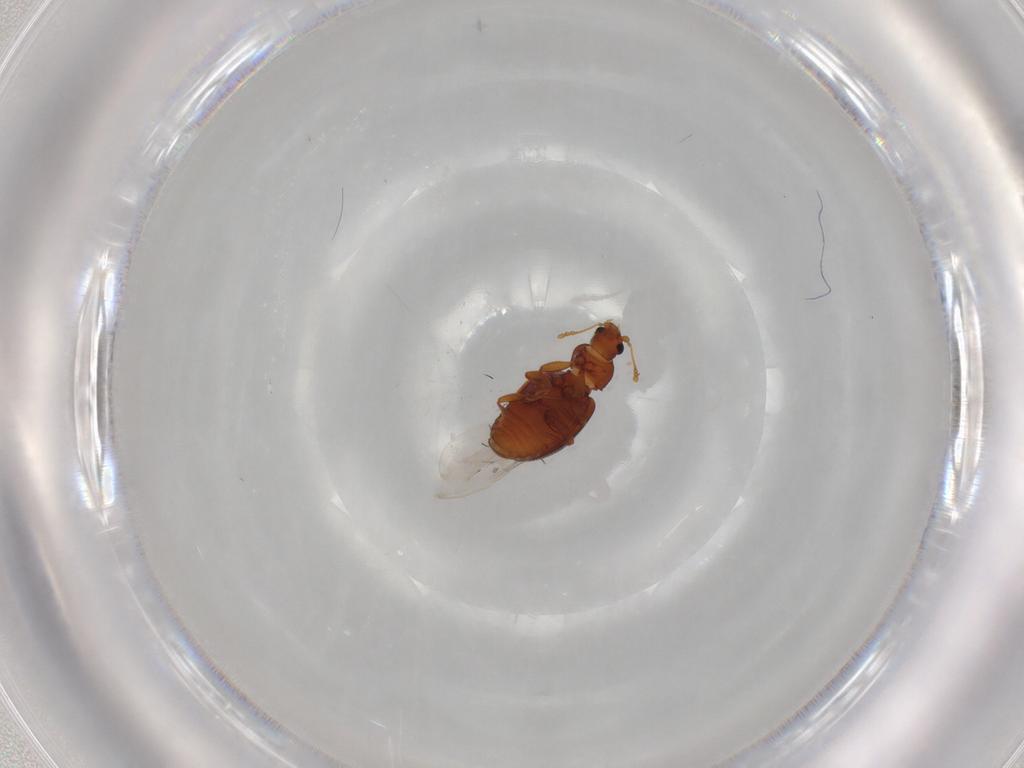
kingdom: Animalia
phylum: Arthropoda
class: Insecta
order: Coleoptera
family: Latridiidae
